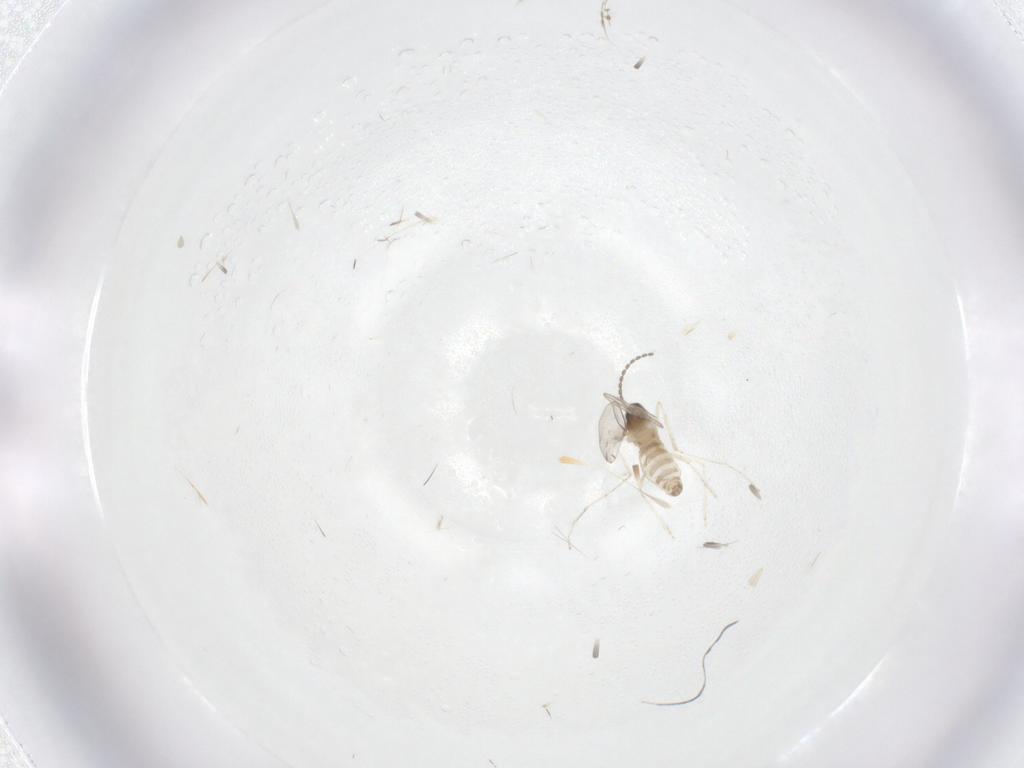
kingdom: Animalia
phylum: Arthropoda
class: Insecta
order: Diptera
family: Cecidomyiidae
